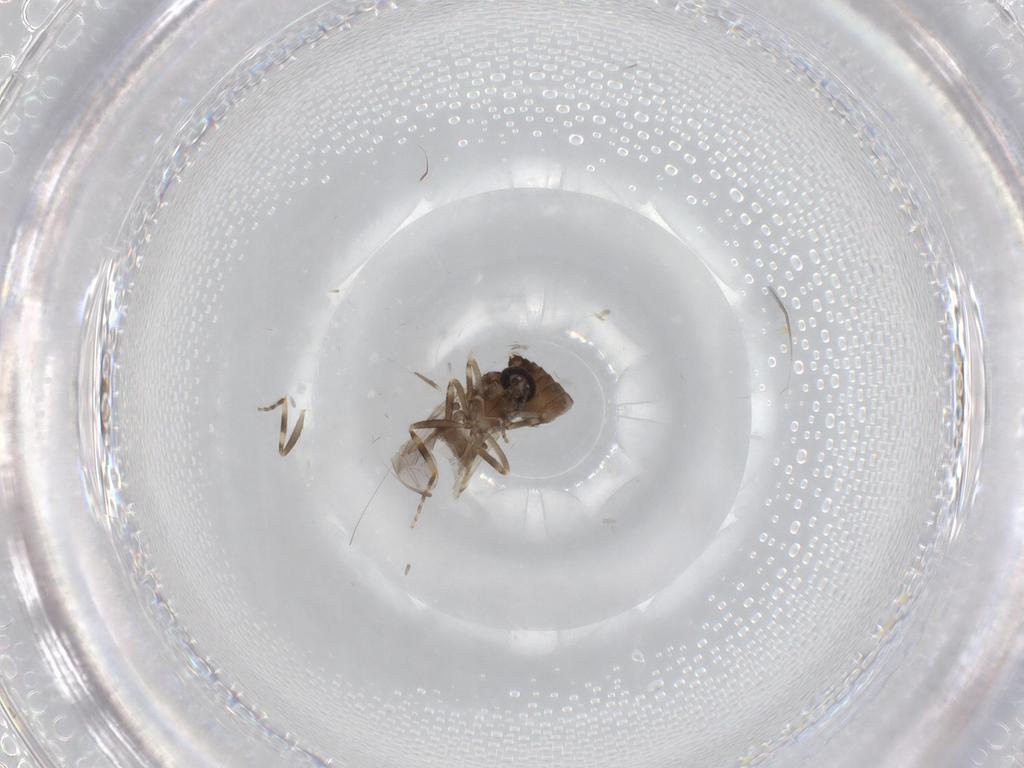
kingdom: Animalia
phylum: Arthropoda
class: Insecta
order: Diptera
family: Ceratopogonidae
